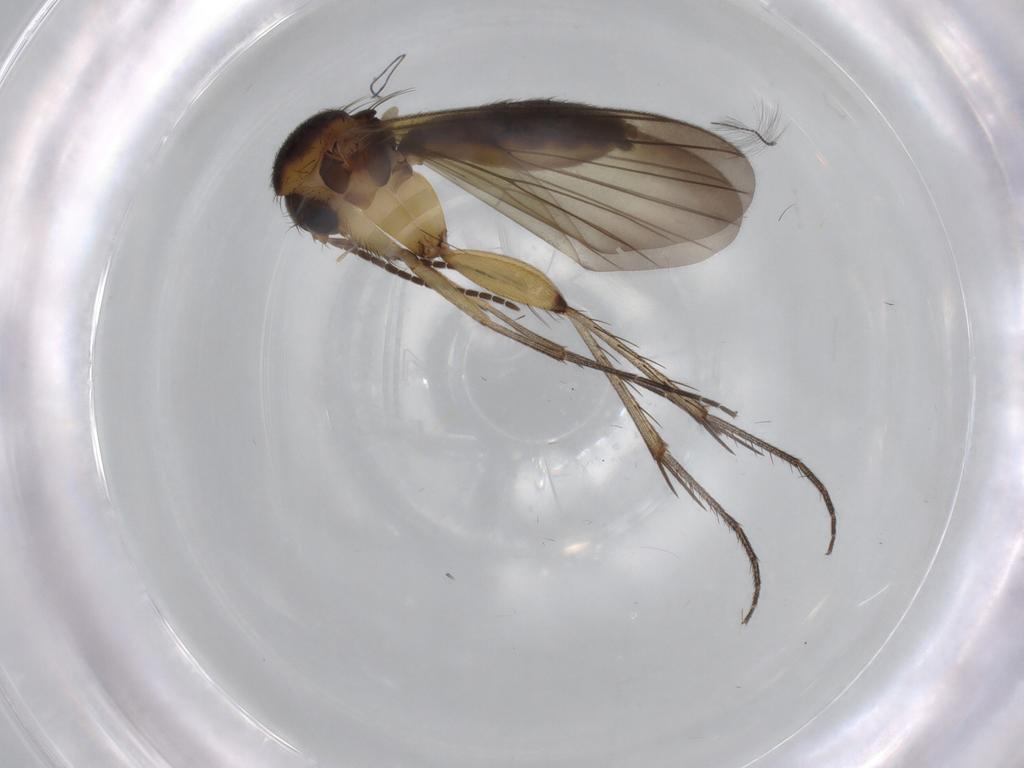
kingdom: Animalia
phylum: Arthropoda
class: Insecta
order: Diptera
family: Mycetophilidae
